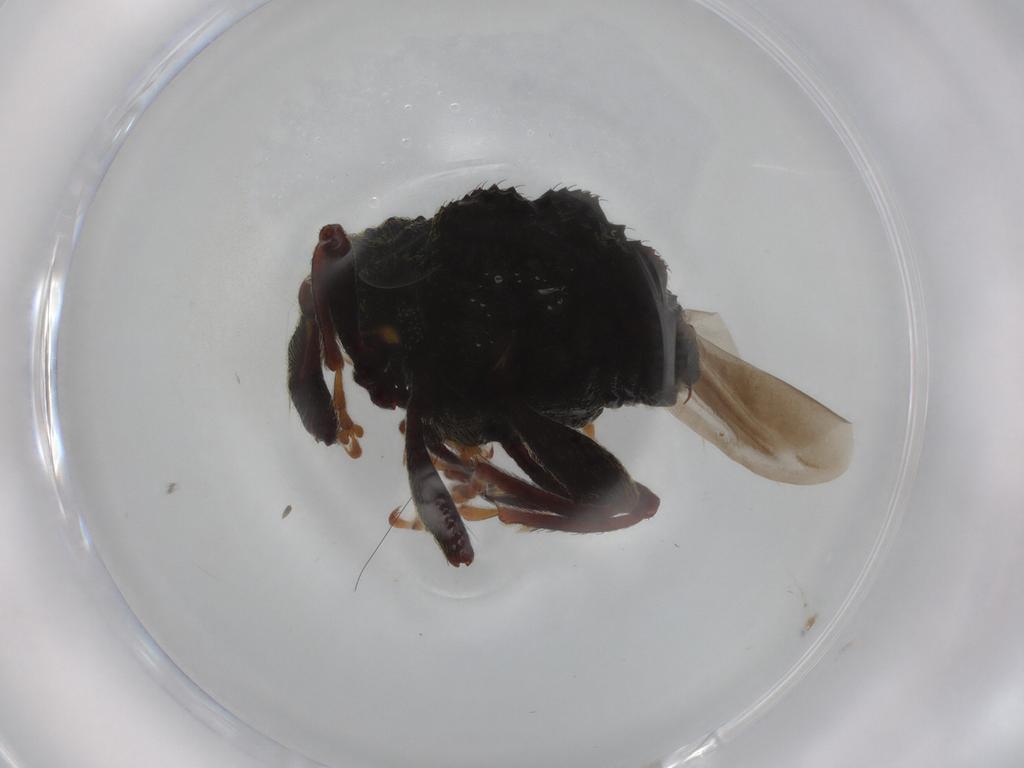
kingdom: Animalia
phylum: Arthropoda
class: Insecta
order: Coleoptera
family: Curculionidae
